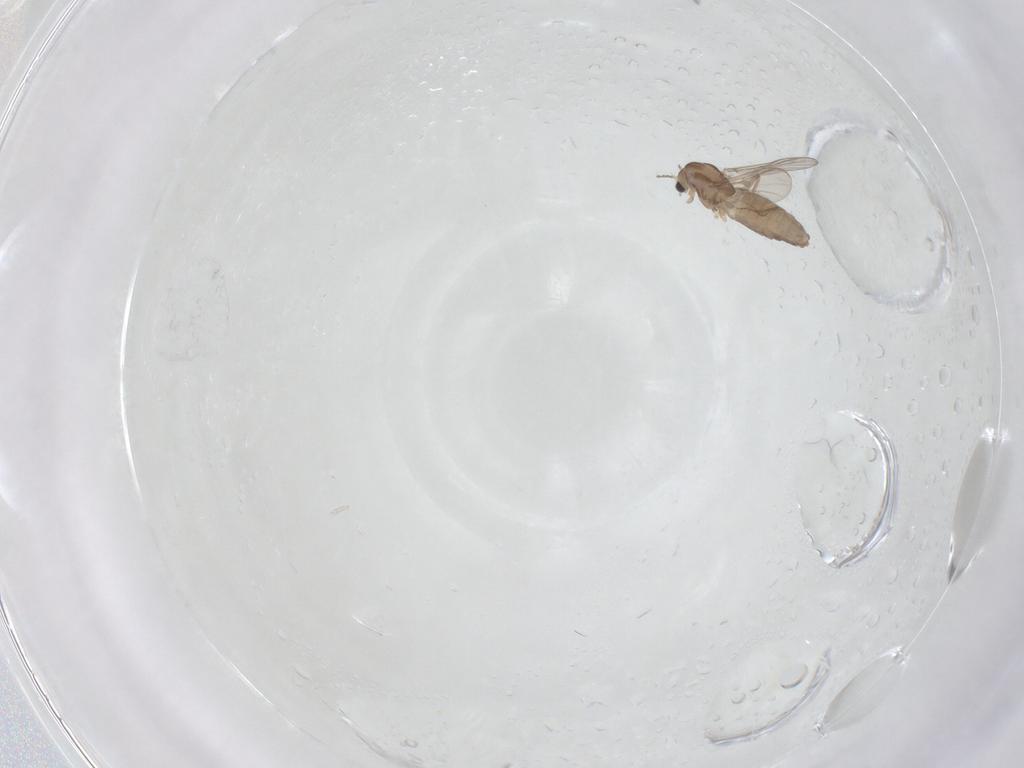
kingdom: Animalia
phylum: Arthropoda
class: Insecta
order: Diptera
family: Chironomidae
